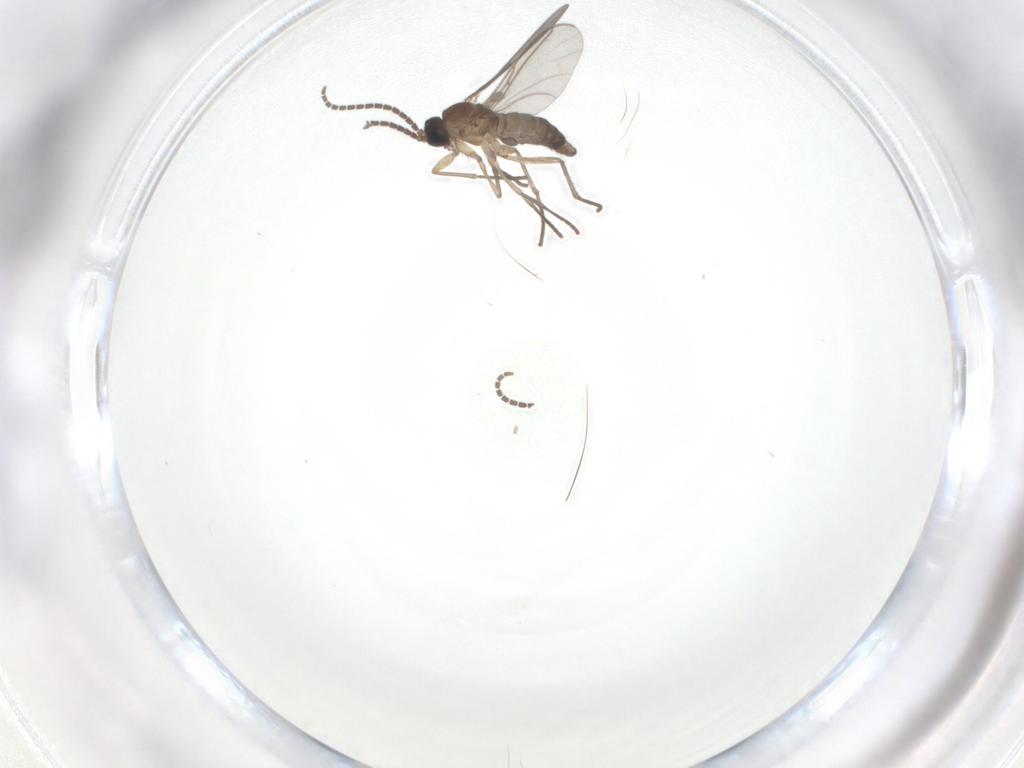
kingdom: Animalia
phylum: Arthropoda
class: Insecta
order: Diptera
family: Sciaridae
